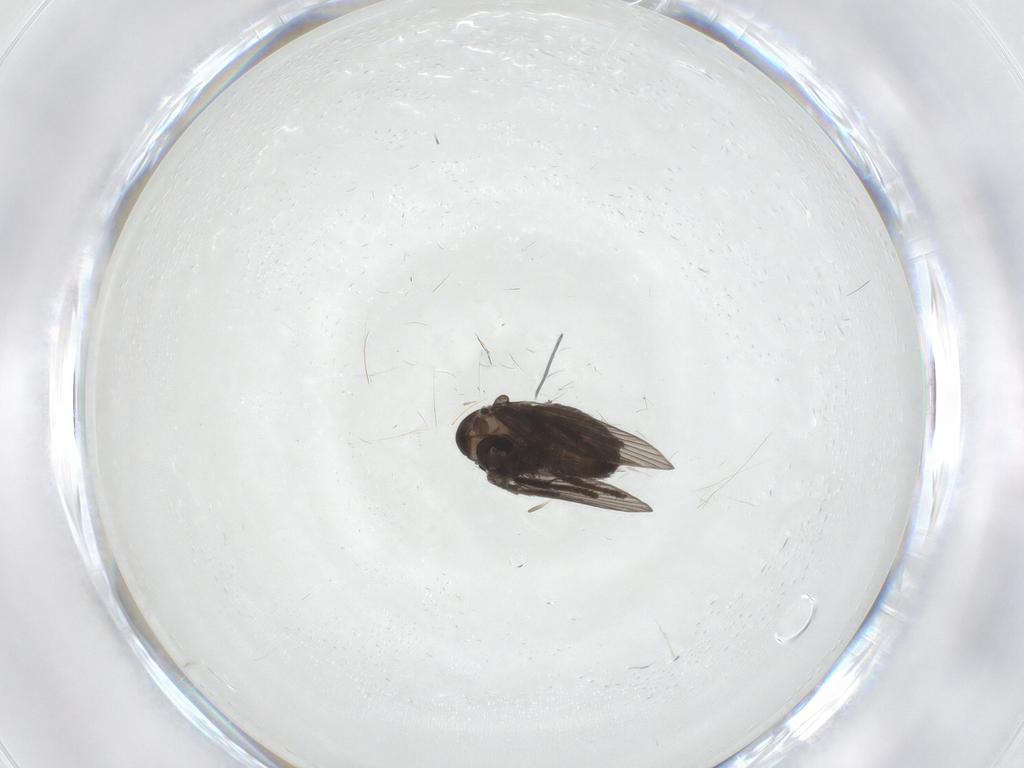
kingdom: Animalia
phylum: Arthropoda
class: Insecta
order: Diptera
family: Psychodidae
